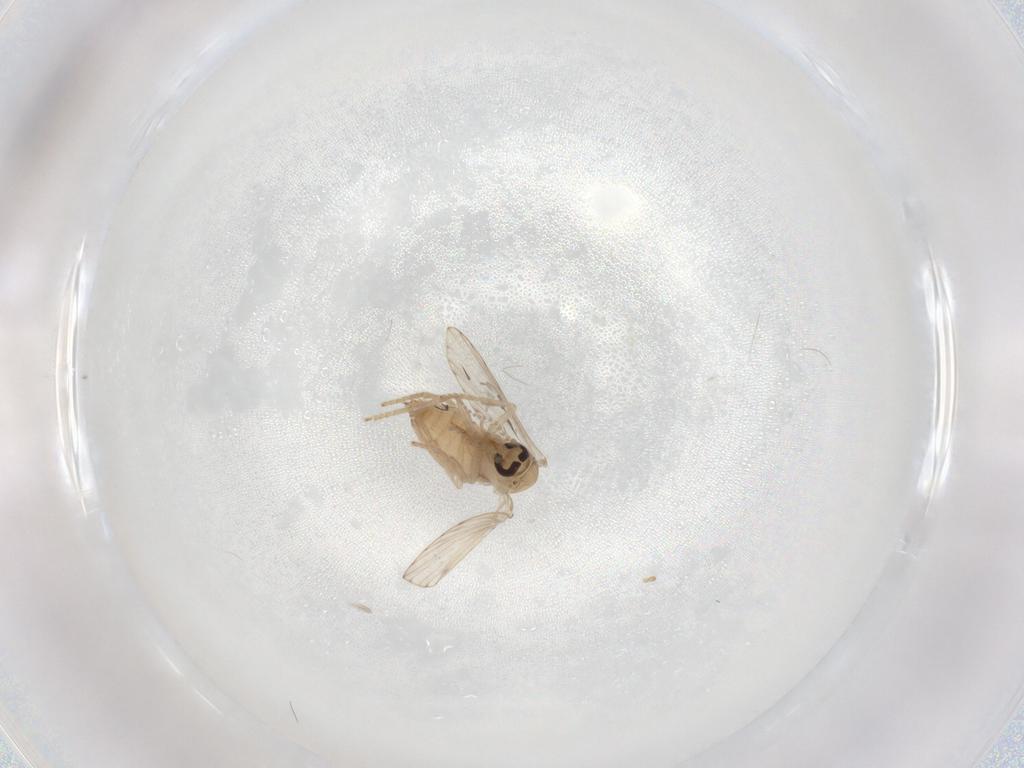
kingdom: Animalia
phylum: Arthropoda
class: Insecta
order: Diptera
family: Psychodidae
